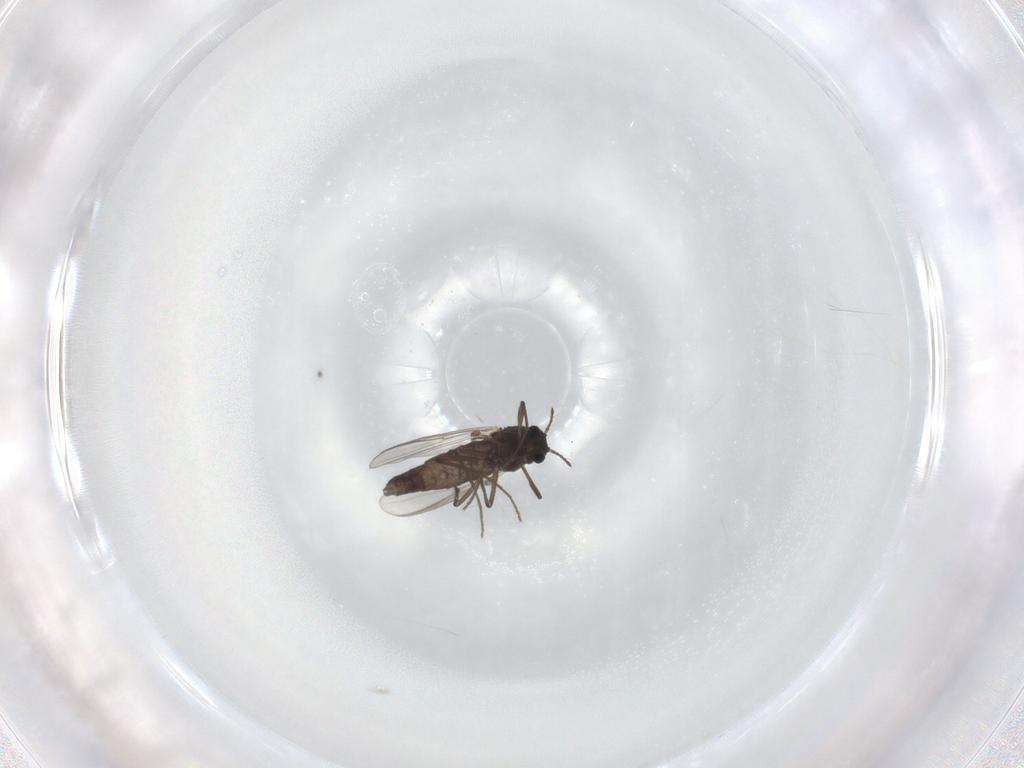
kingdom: Animalia
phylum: Arthropoda
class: Insecta
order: Diptera
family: Chironomidae
